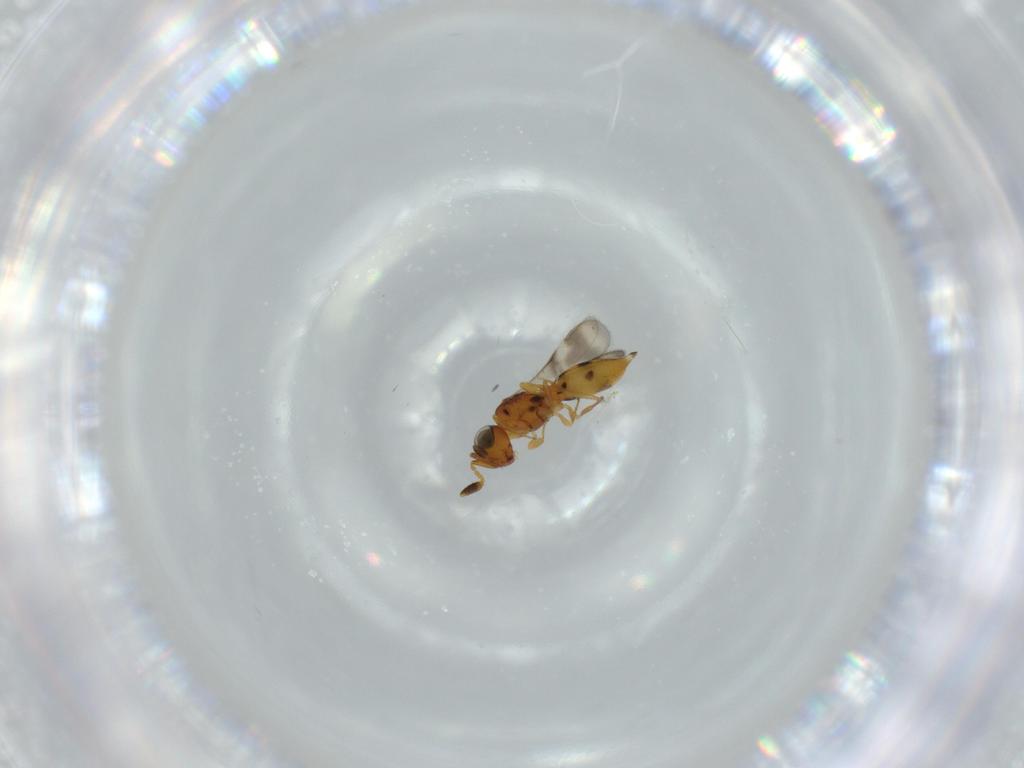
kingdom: Animalia
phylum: Arthropoda
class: Insecta
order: Hymenoptera
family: Scelionidae
